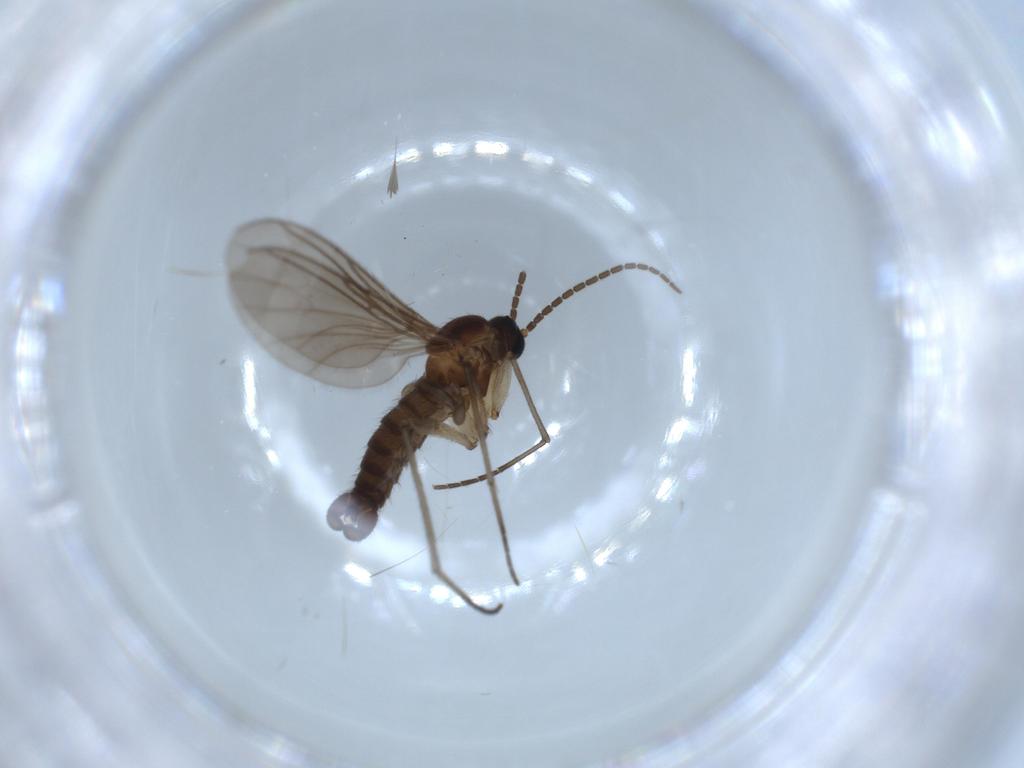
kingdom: Animalia
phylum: Arthropoda
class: Insecta
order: Diptera
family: Sciaridae
